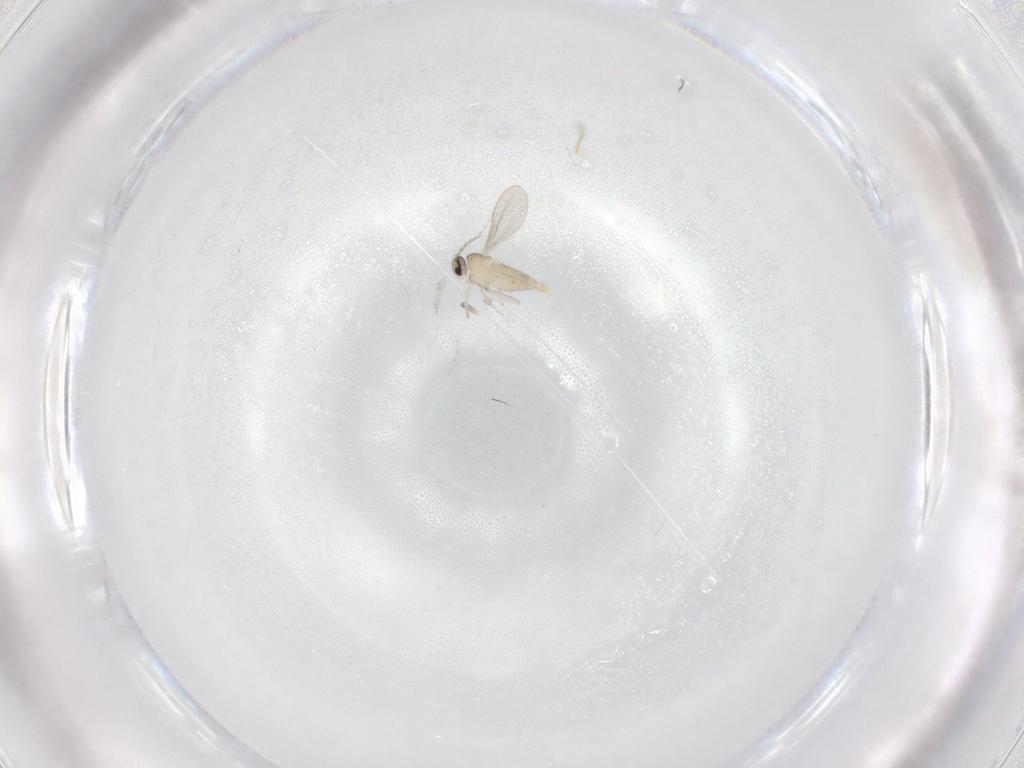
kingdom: Animalia
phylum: Arthropoda
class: Insecta
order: Diptera
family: Cecidomyiidae
